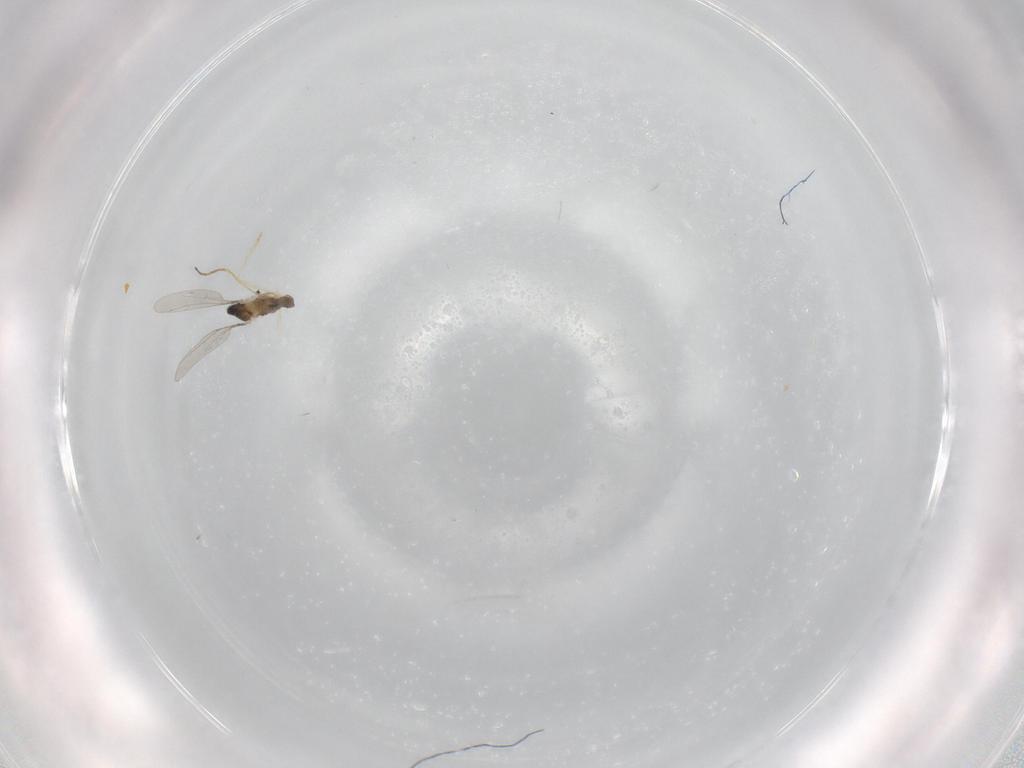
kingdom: Animalia
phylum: Arthropoda
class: Insecta
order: Diptera
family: Cecidomyiidae
